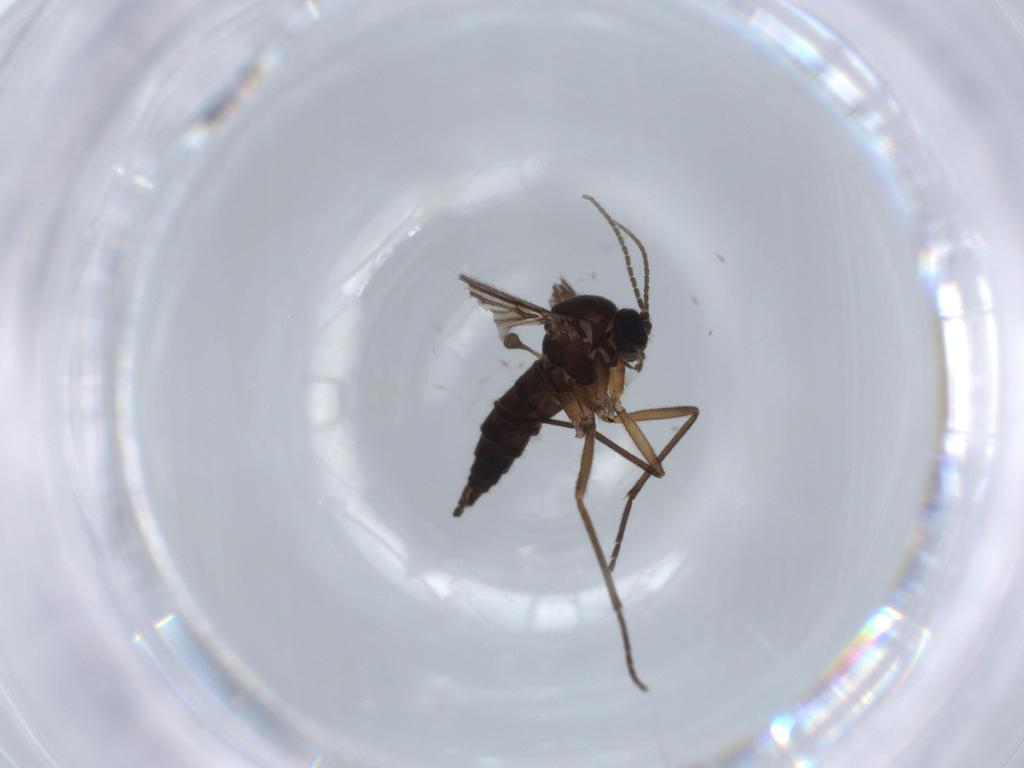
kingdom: Animalia
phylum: Arthropoda
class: Insecta
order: Diptera
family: Sciaridae
